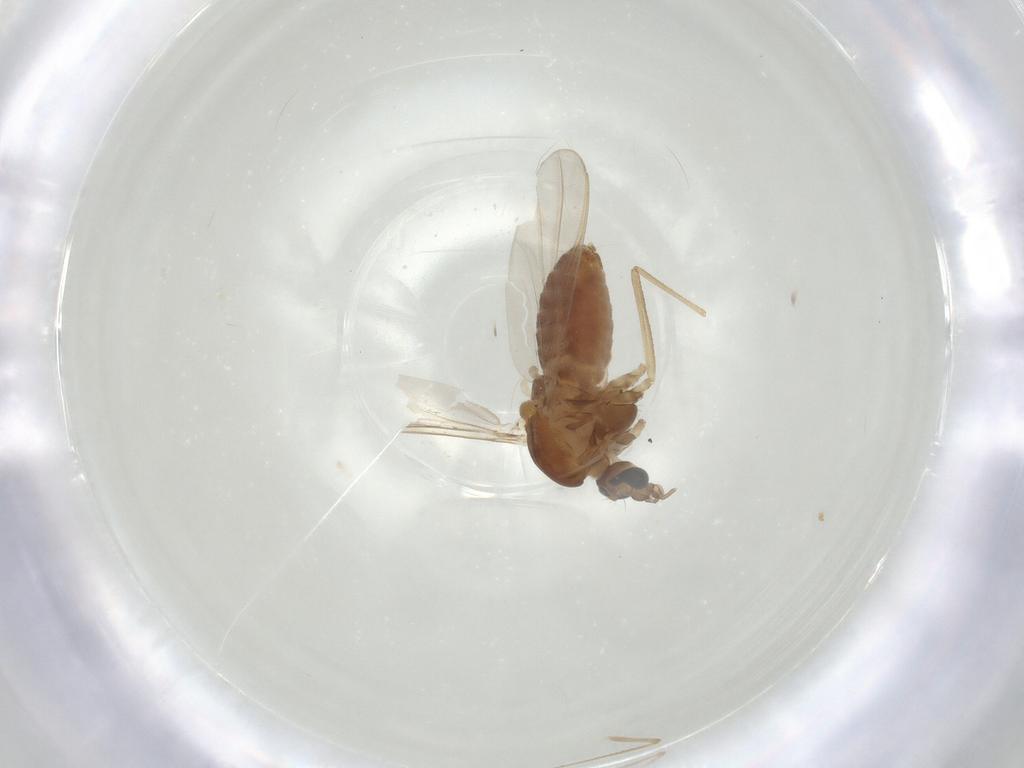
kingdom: Animalia
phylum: Arthropoda
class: Insecta
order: Diptera
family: Chironomidae
